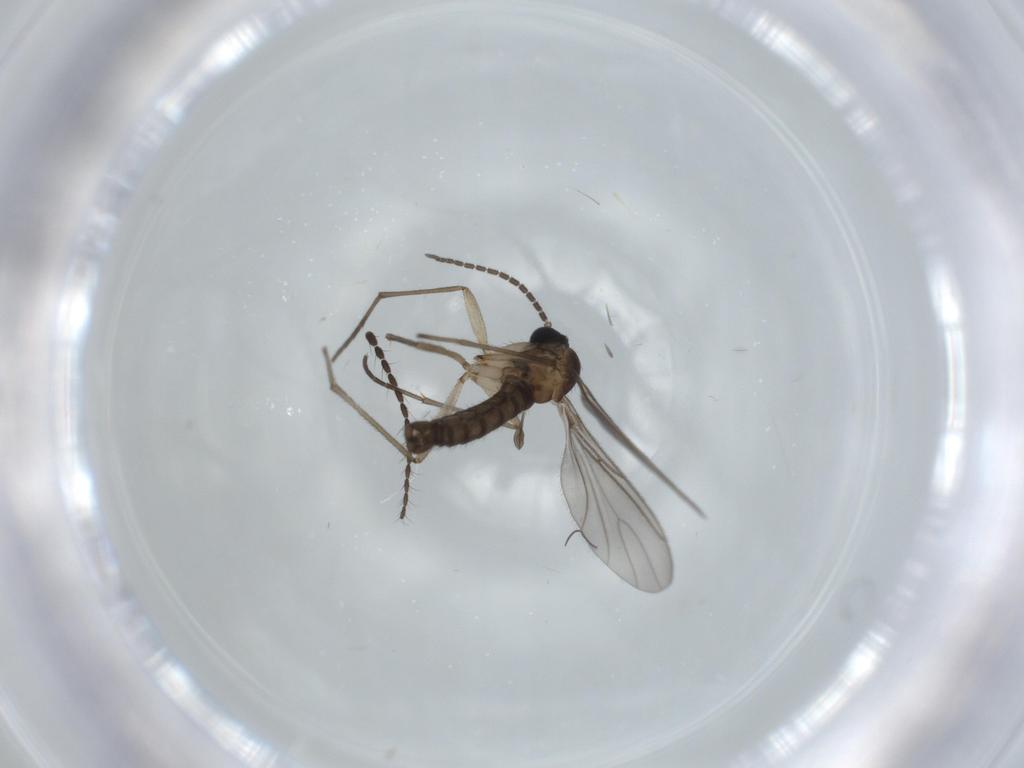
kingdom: Animalia
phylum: Arthropoda
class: Insecta
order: Diptera
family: Limoniidae
